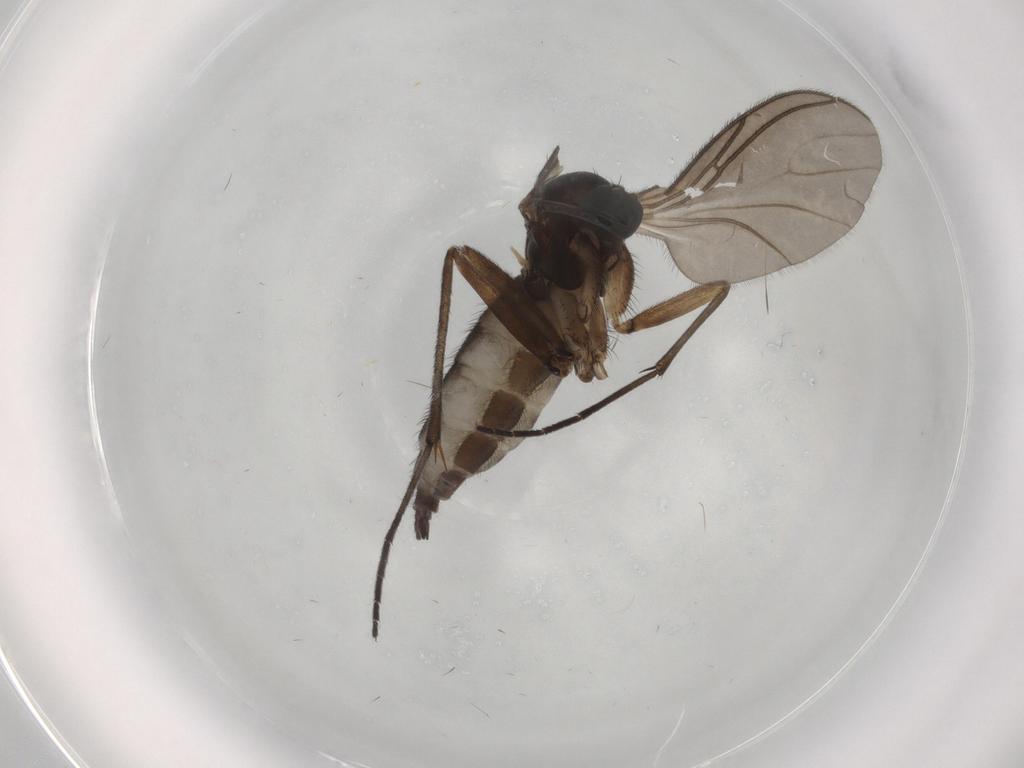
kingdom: Animalia
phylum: Arthropoda
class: Insecta
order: Diptera
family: Sciaridae
